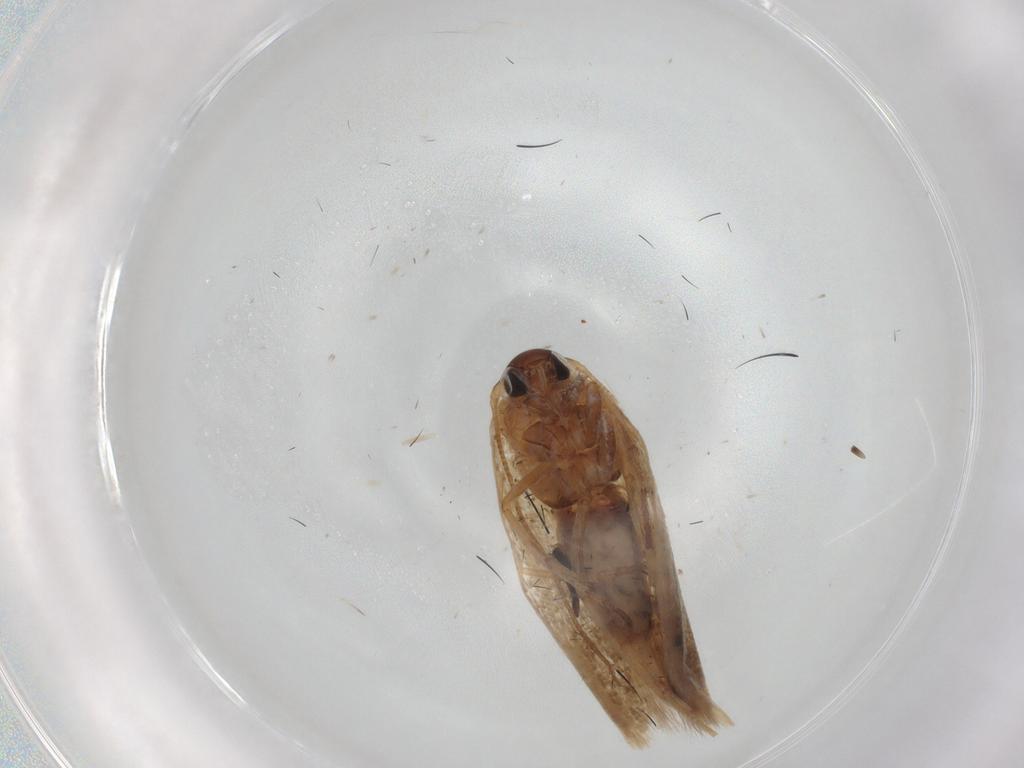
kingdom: Animalia
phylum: Arthropoda
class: Insecta
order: Lepidoptera
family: Scythrididae
